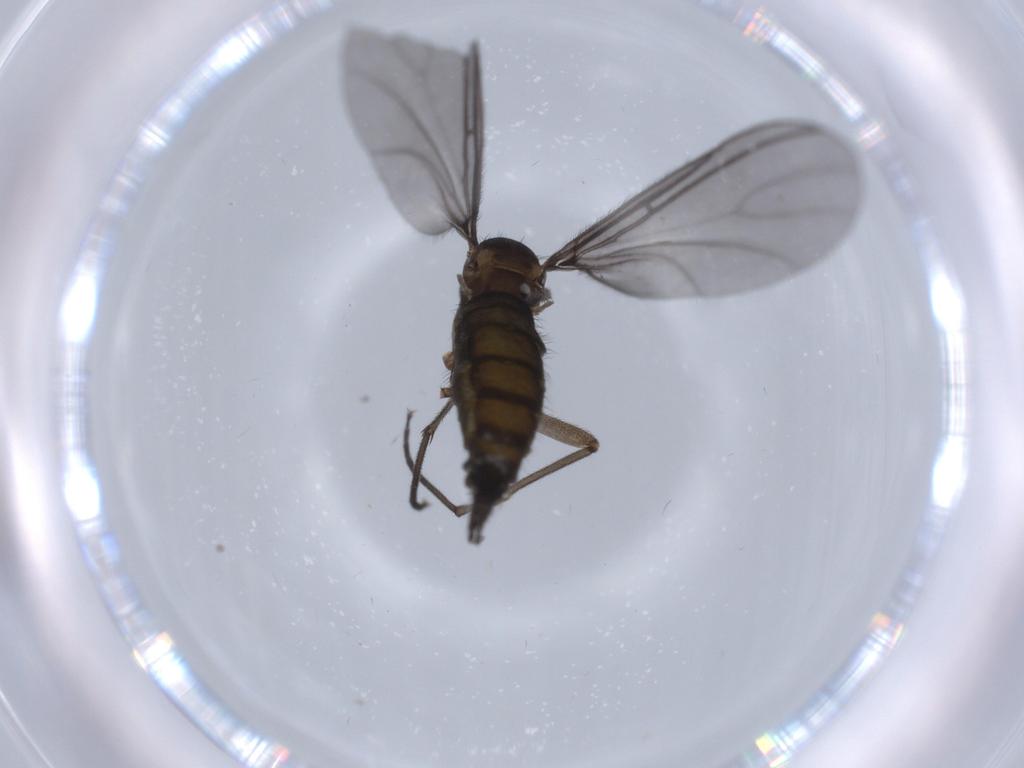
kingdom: Animalia
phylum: Arthropoda
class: Insecta
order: Diptera
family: Sciaridae
